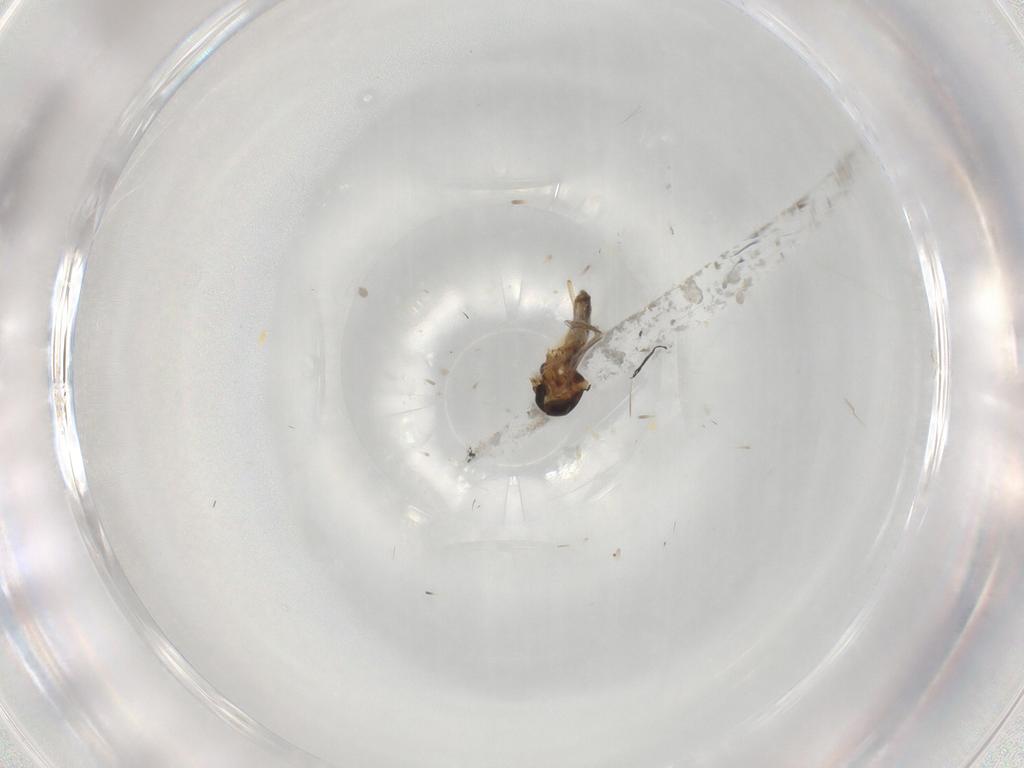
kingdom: Animalia
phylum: Arthropoda
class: Insecta
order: Diptera
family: Ceratopogonidae
